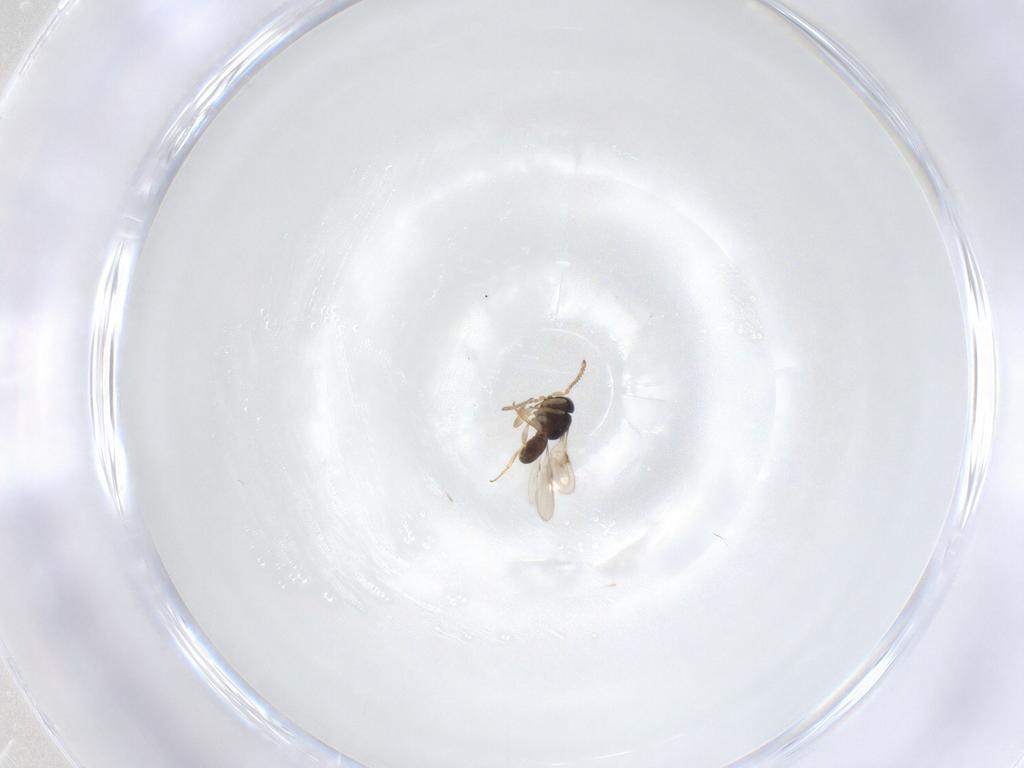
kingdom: Animalia
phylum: Arthropoda
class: Insecta
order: Hymenoptera
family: Scelionidae
